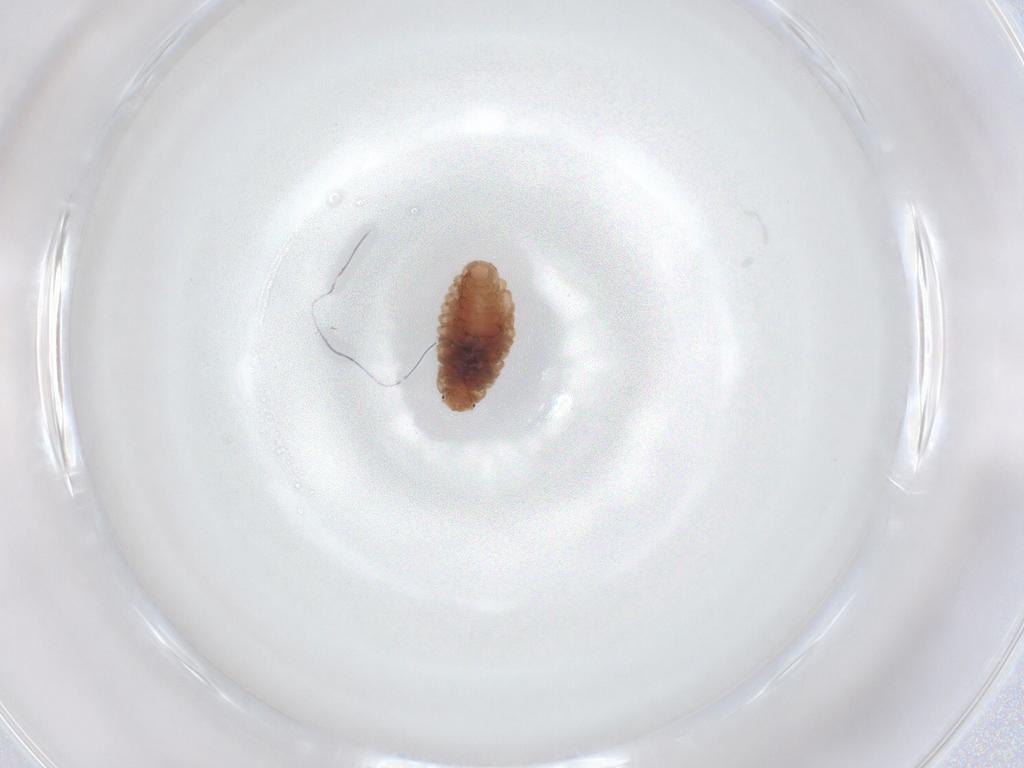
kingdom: Animalia
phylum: Arthropoda
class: Insecta
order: Coleoptera
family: Coccinellidae
